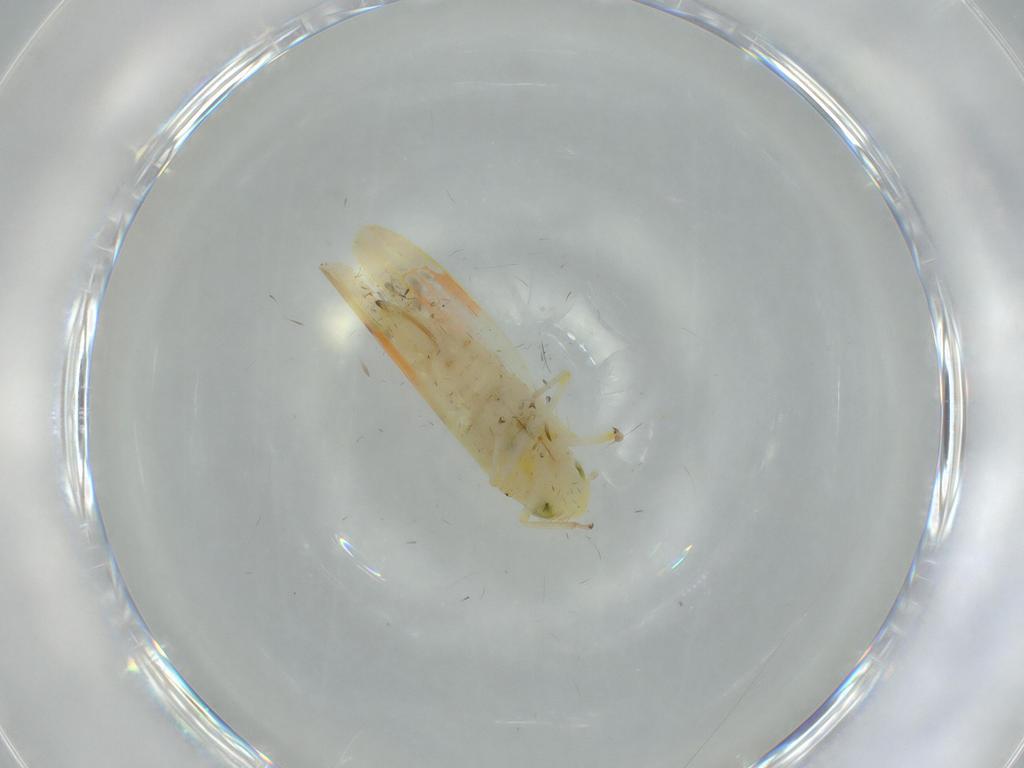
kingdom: Animalia
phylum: Arthropoda
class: Insecta
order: Hemiptera
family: Cicadellidae
